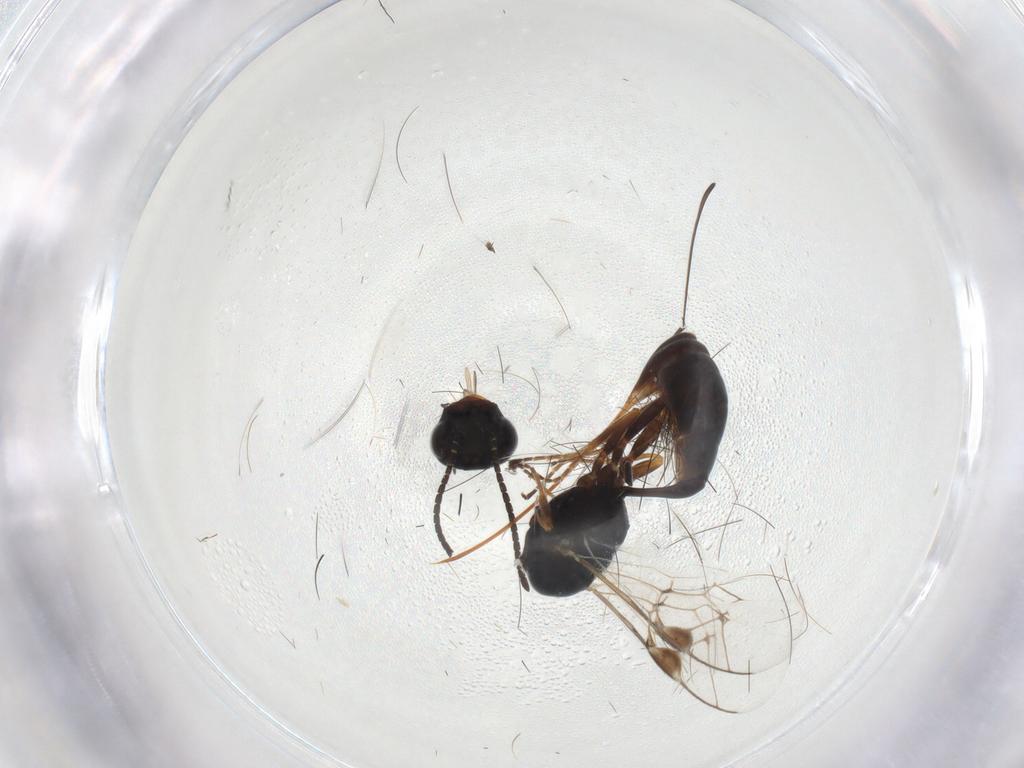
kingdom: Animalia
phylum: Arthropoda
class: Insecta
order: Hymenoptera
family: Ichneumonidae
